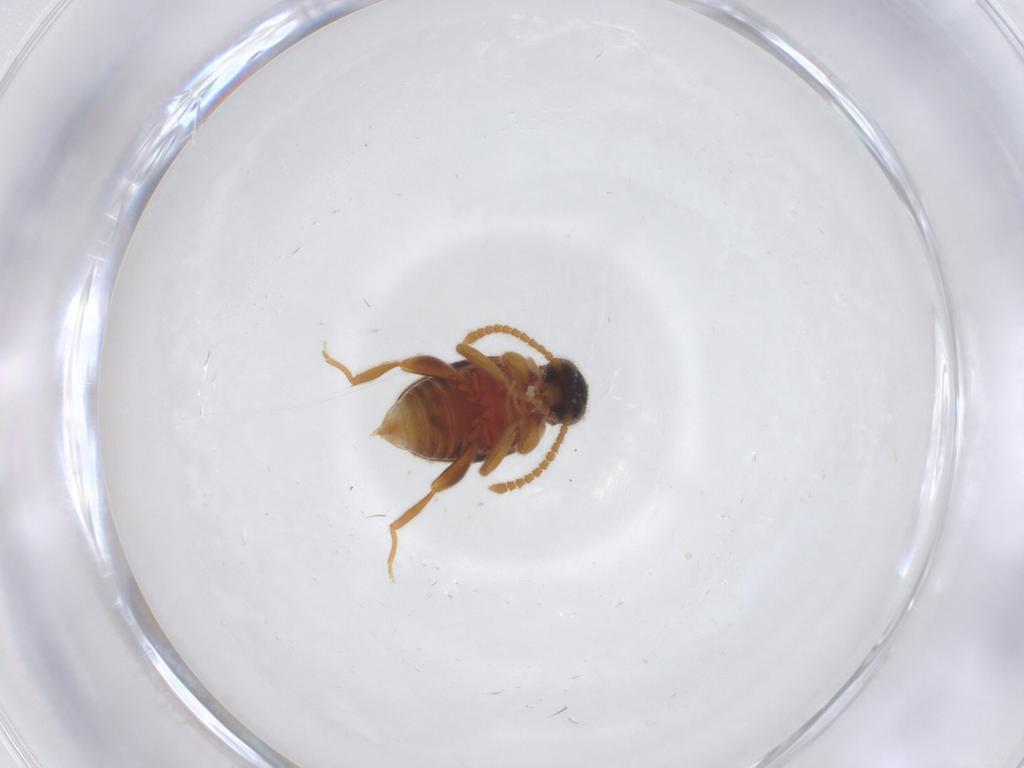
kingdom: Animalia
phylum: Arthropoda
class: Insecta
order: Coleoptera
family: Aderidae
